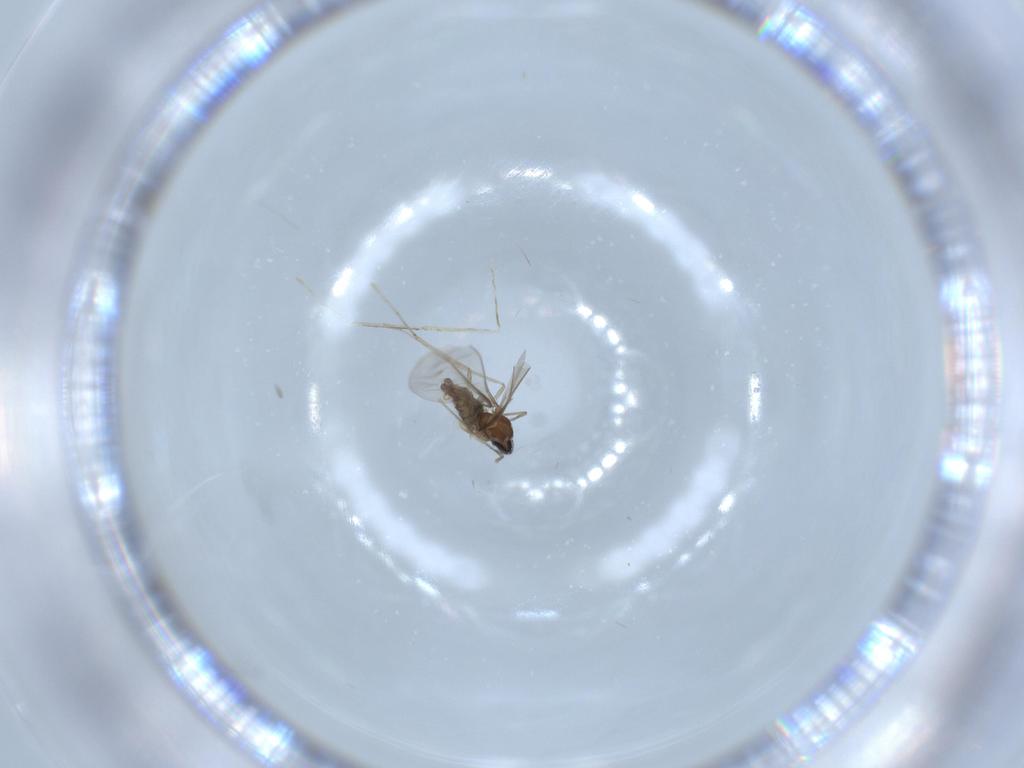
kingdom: Animalia
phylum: Arthropoda
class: Insecta
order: Diptera
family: Cecidomyiidae
